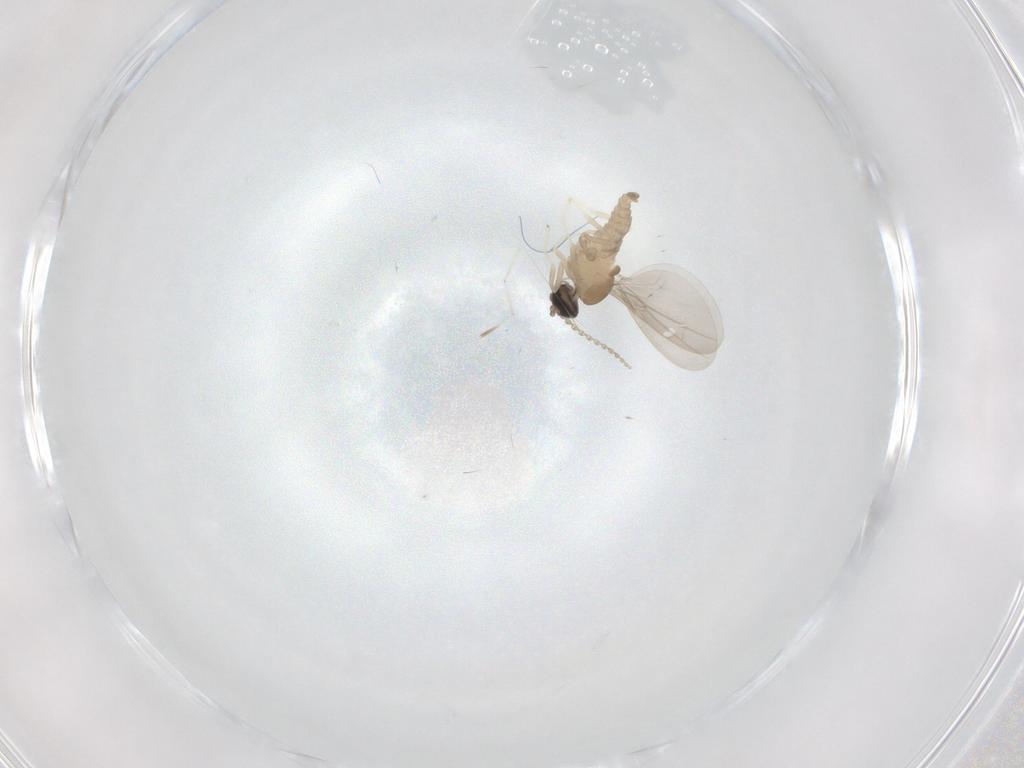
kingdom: Animalia
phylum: Arthropoda
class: Insecta
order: Diptera
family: Cecidomyiidae
